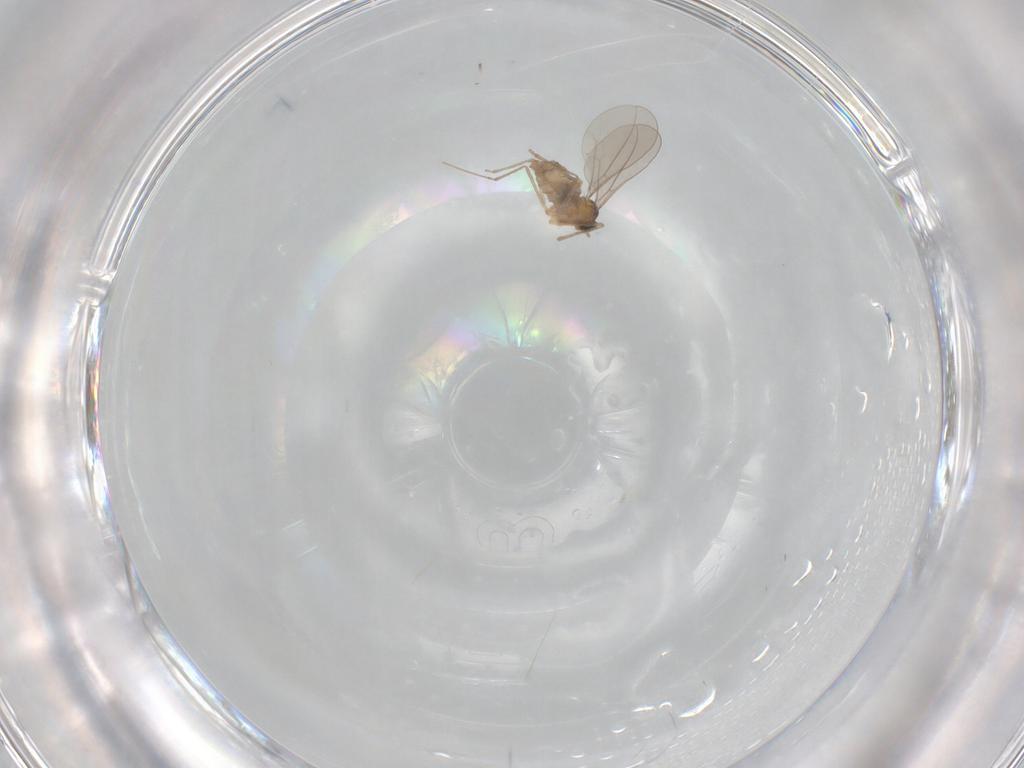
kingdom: Animalia
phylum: Arthropoda
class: Insecta
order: Diptera
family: Cecidomyiidae
